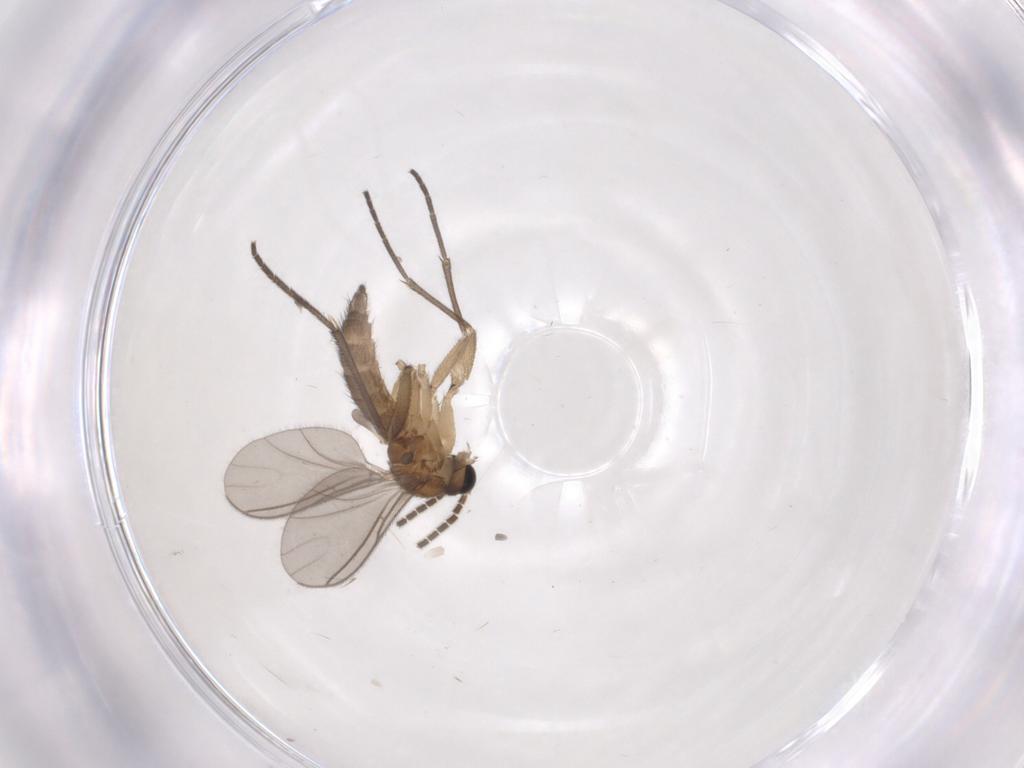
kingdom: Animalia
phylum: Arthropoda
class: Insecta
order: Diptera
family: Sciaridae
